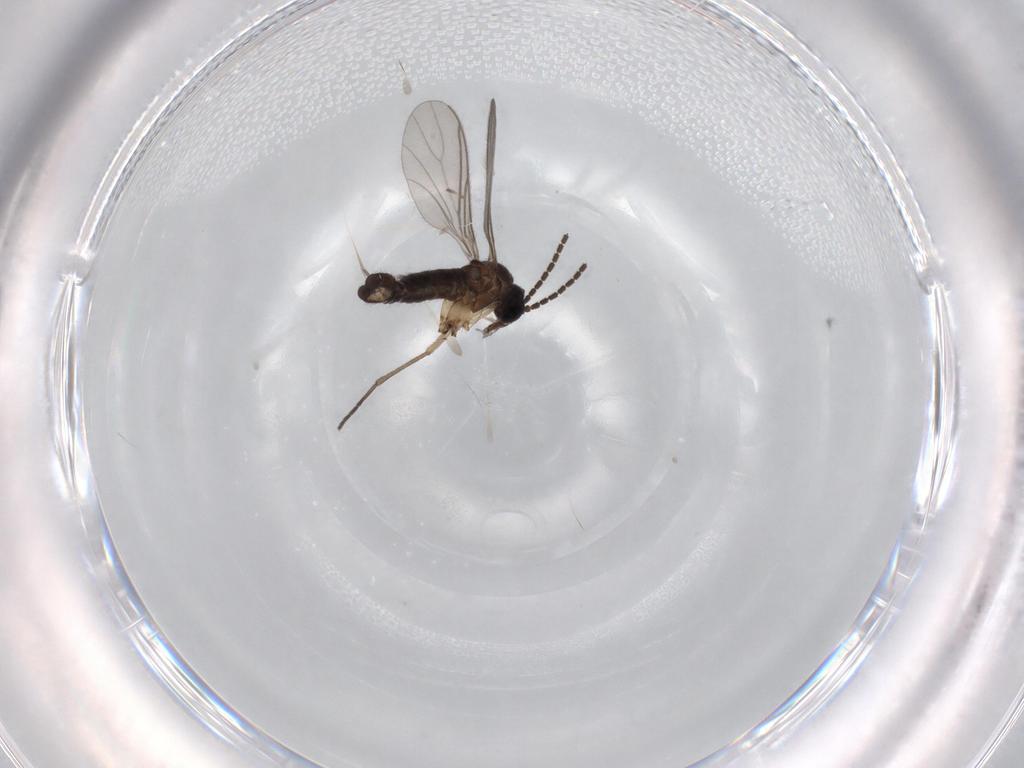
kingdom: Animalia
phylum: Arthropoda
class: Insecta
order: Diptera
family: Sciaridae
